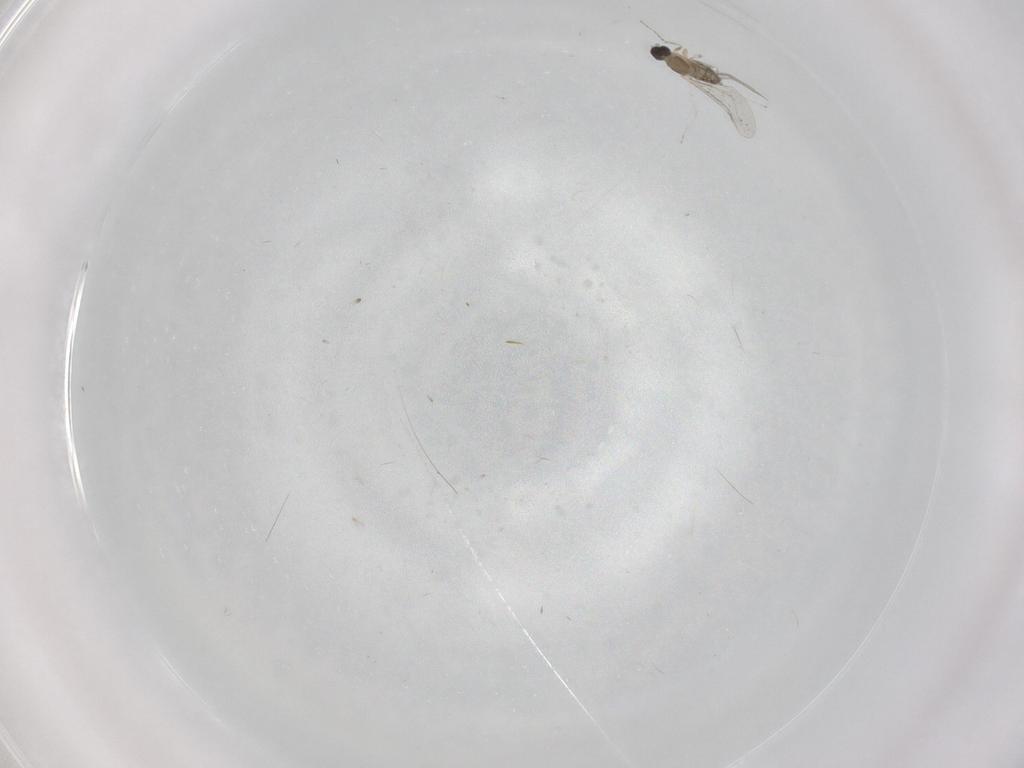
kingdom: Animalia
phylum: Arthropoda
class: Insecta
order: Diptera
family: Cecidomyiidae
